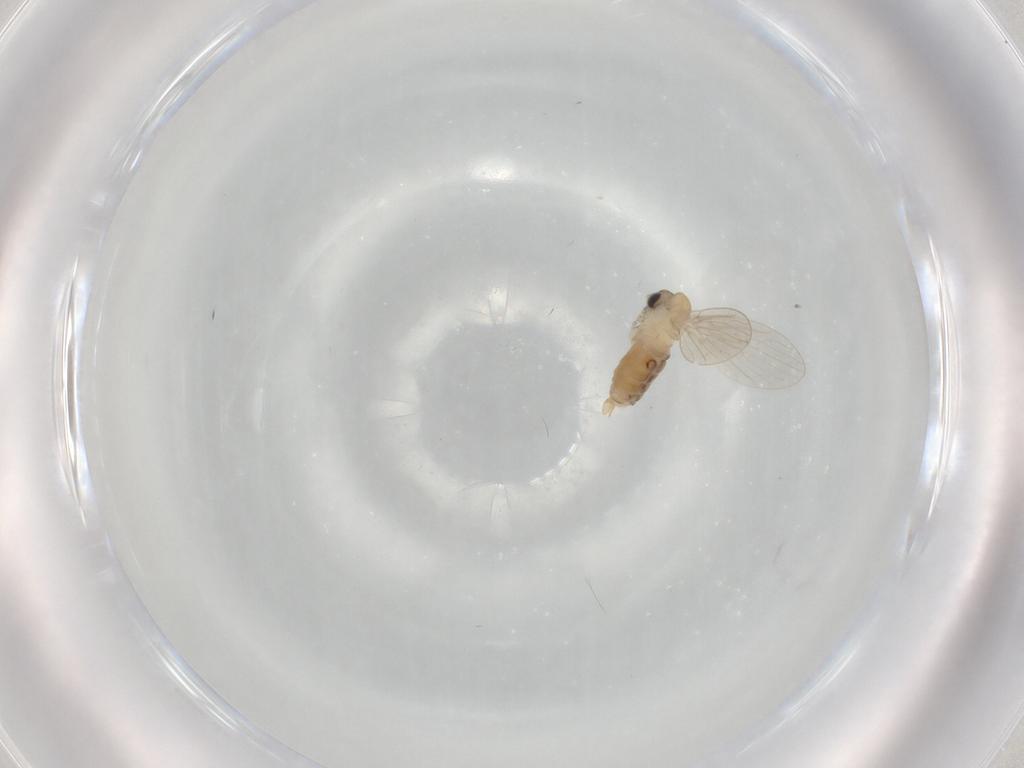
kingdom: Animalia
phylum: Arthropoda
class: Insecta
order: Diptera
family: Psychodidae
